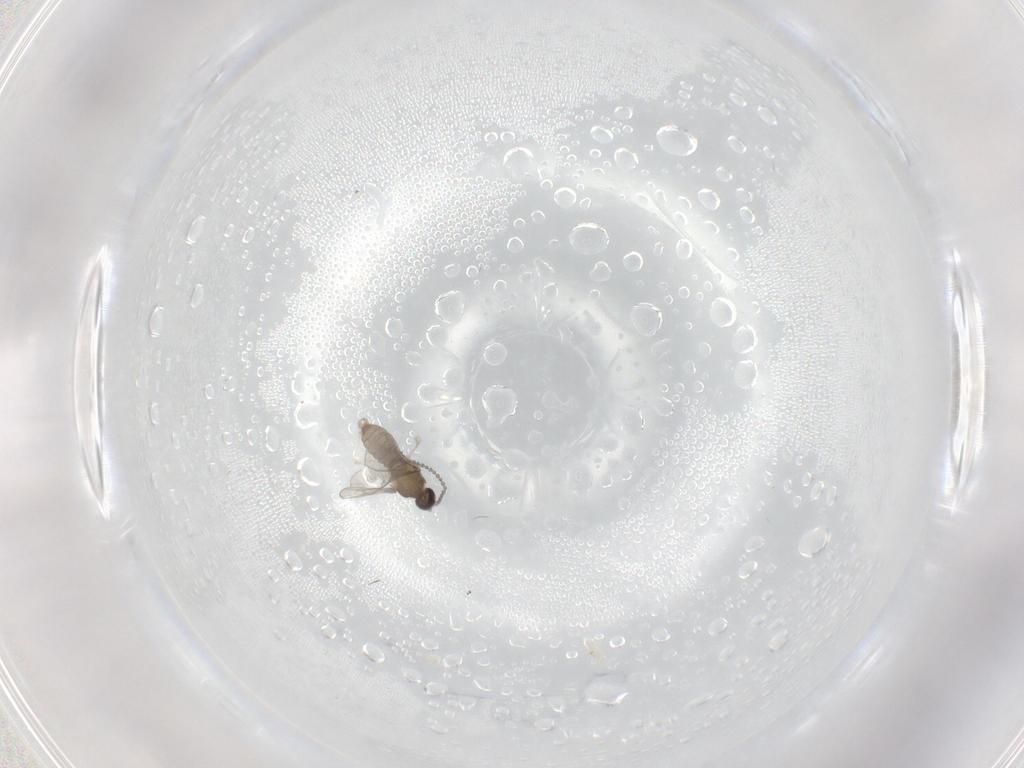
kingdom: Animalia
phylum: Arthropoda
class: Insecta
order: Diptera
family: Cecidomyiidae
